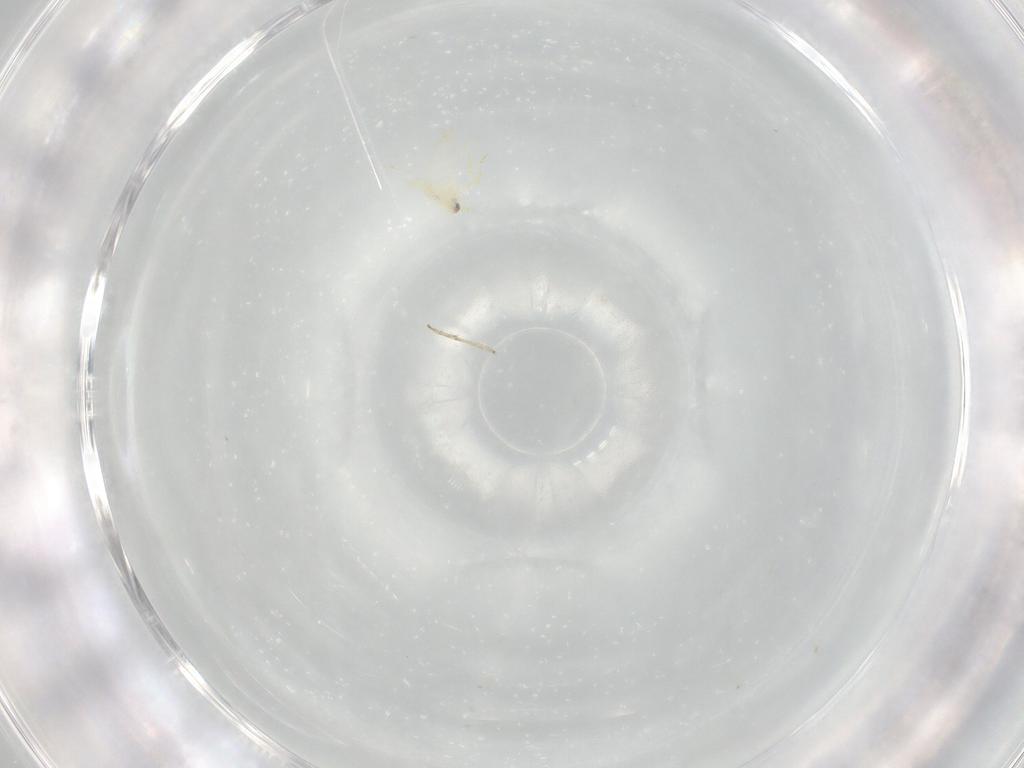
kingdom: Animalia
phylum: Arthropoda
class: Insecta
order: Hemiptera
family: Aleyrodidae
